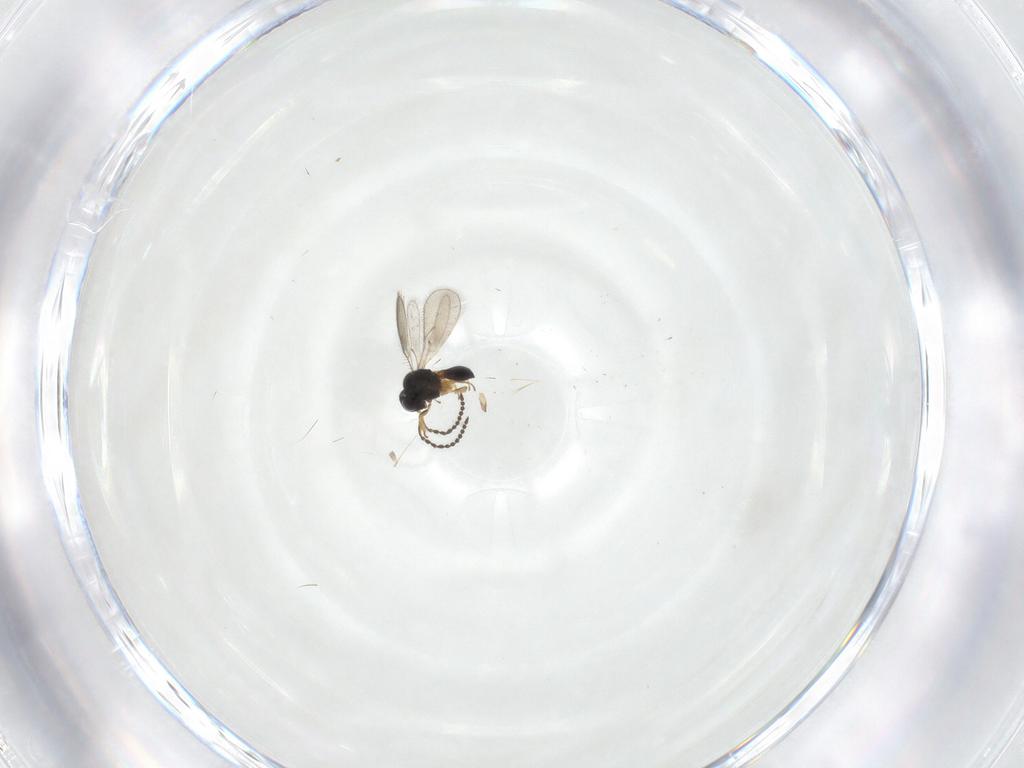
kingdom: Animalia
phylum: Arthropoda
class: Insecta
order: Hymenoptera
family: Scelionidae
